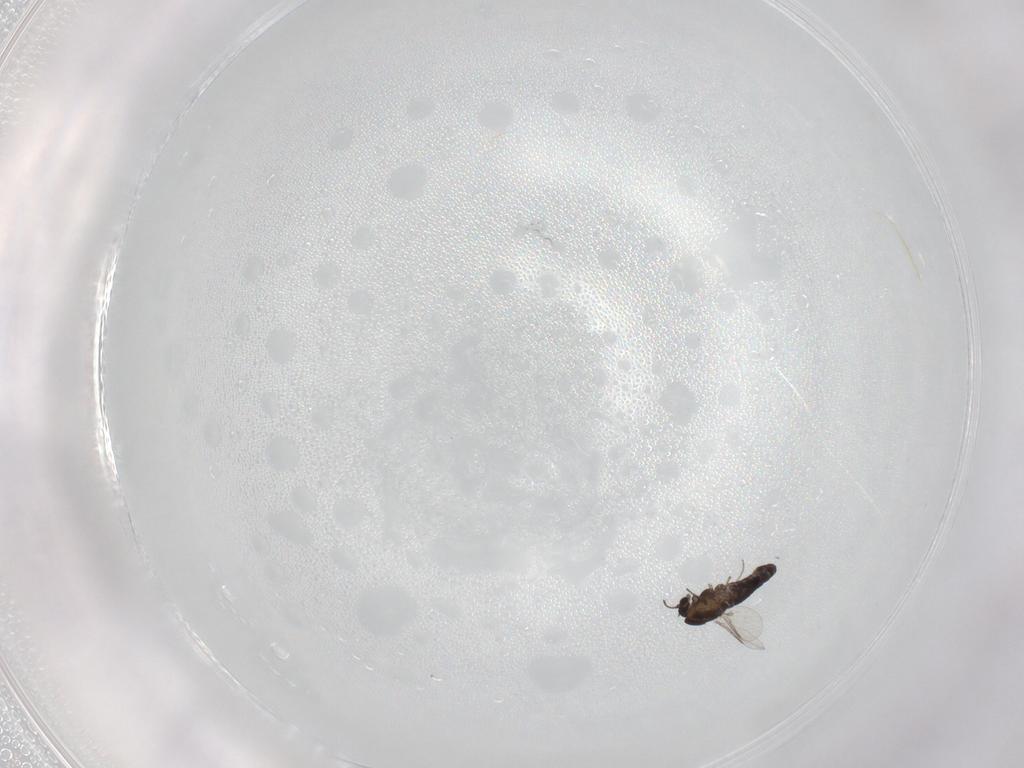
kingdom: Animalia
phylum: Arthropoda
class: Insecta
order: Diptera
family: Chironomidae
